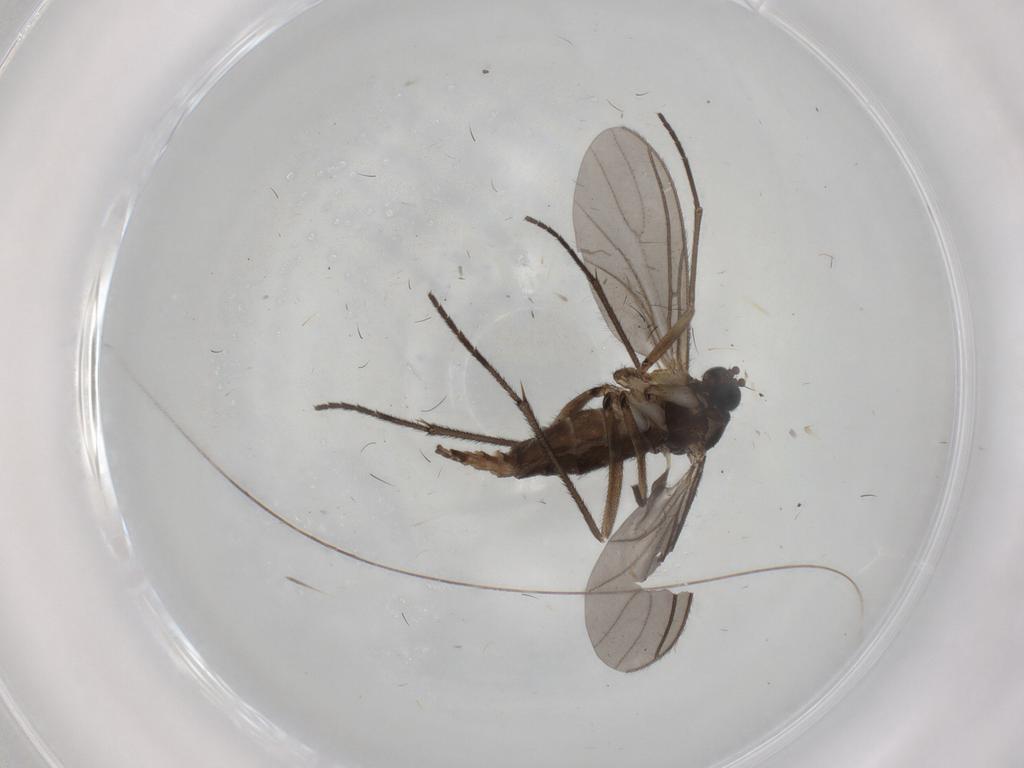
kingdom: Animalia
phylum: Arthropoda
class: Insecta
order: Diptera
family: Sciaridae
